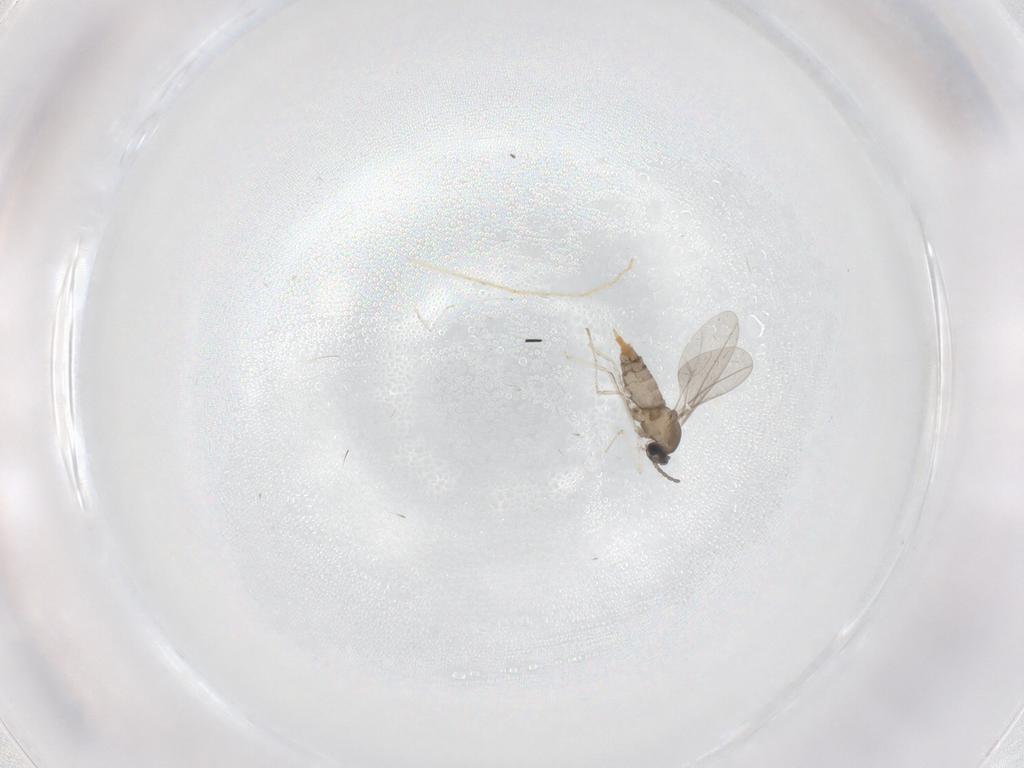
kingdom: Animalia
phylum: Arthropoda
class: Insecta
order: Diptera
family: Cecidomyiidae
